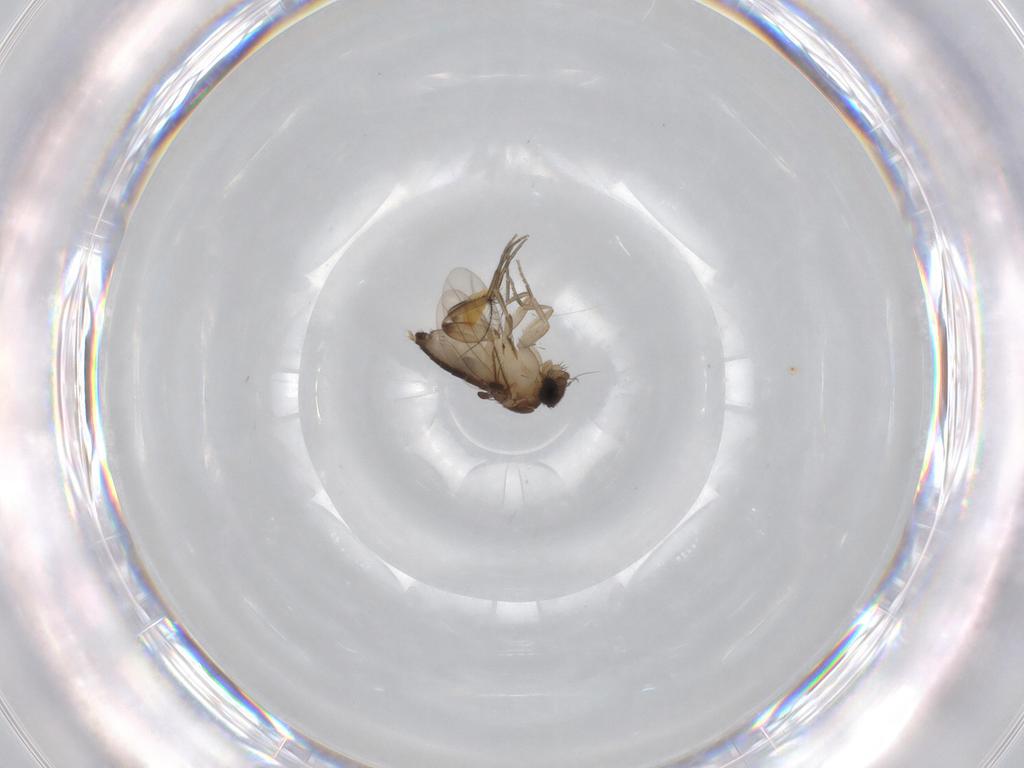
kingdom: Animalia
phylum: Arthropoda
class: Insecta
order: Diptera
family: Phoridae
